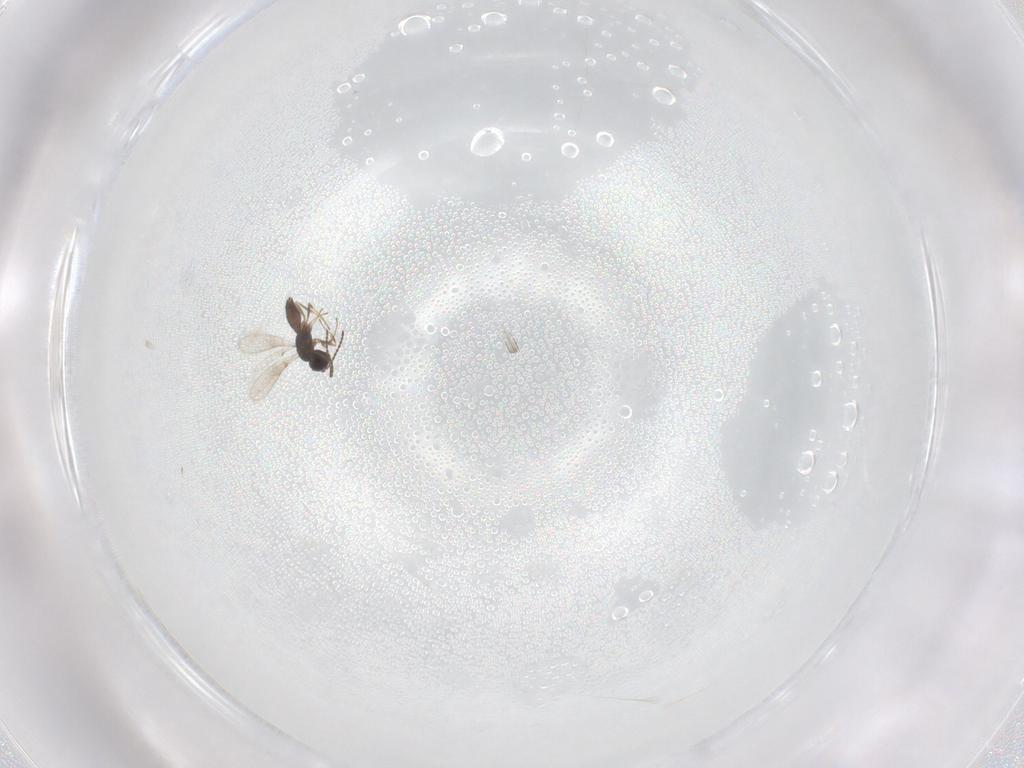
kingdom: Animalia
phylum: Arthropoda
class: Insecta
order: Hymenoptera
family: Scelionidae
